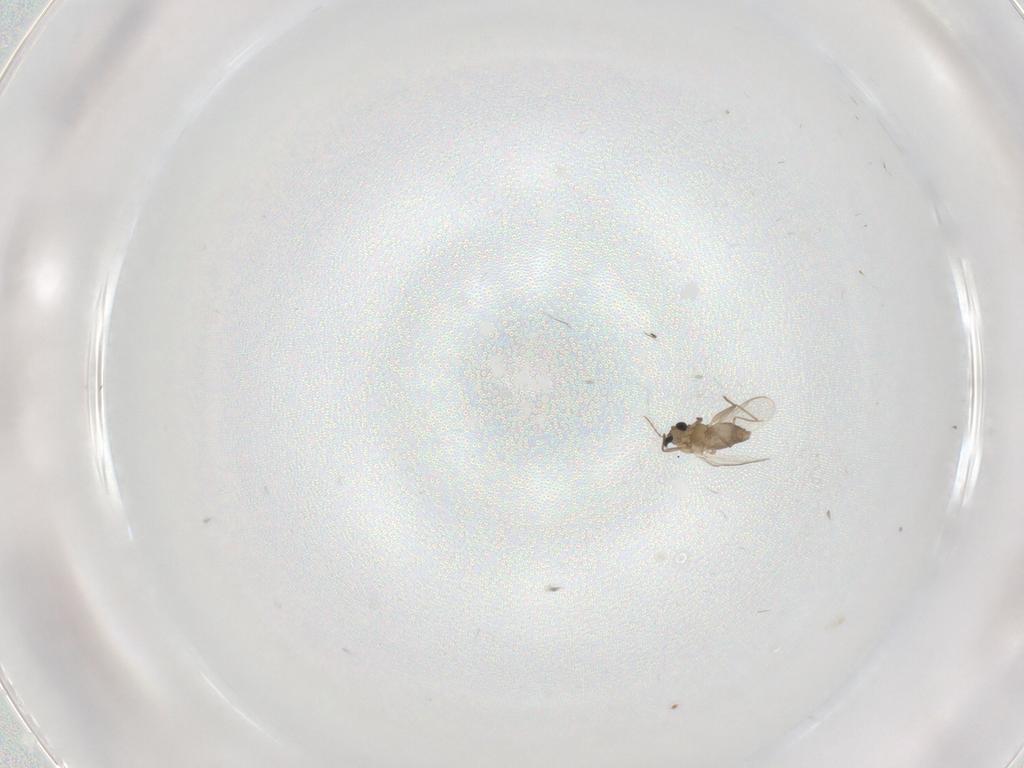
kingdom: Animalia
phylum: Arthropoda
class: Insecta
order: Diptera
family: Chironomidae
